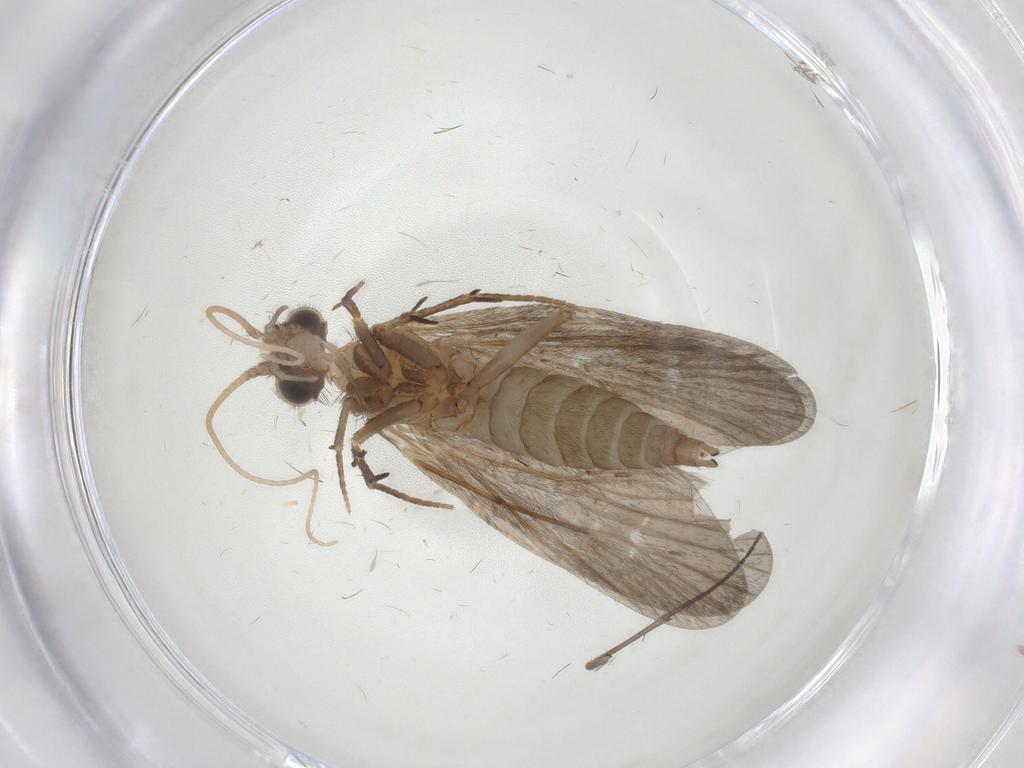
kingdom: Animalia
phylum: Arthropoda
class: Insecta
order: Trichoptera
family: Philopotamidae
